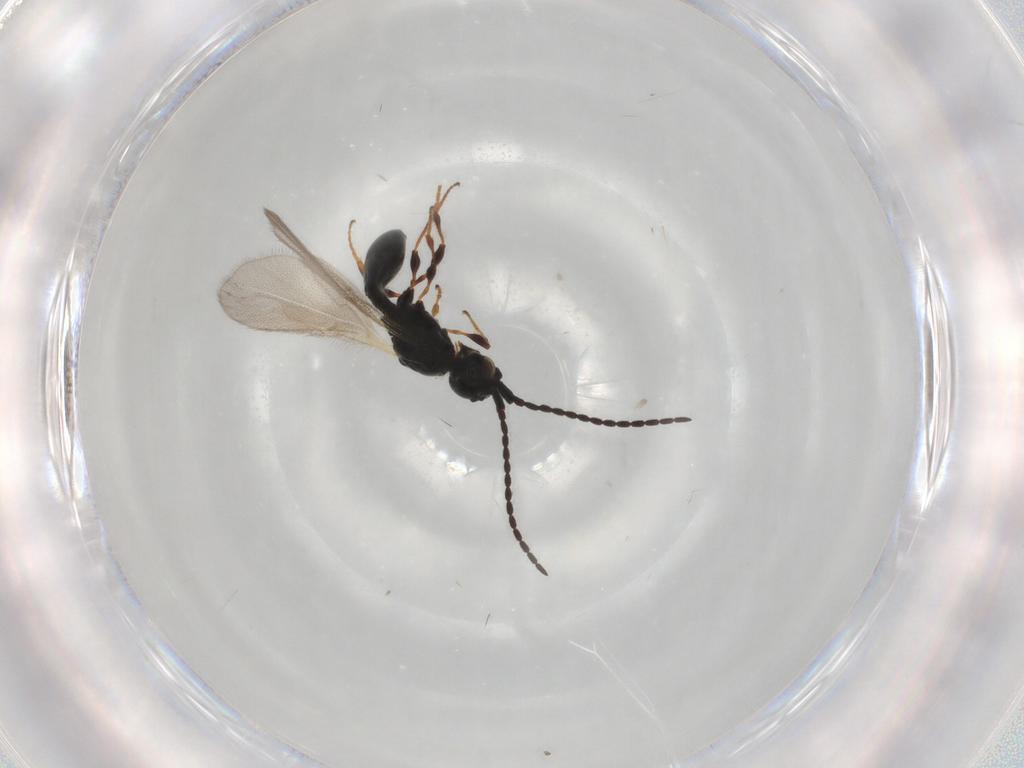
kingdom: Animalia
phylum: Arthropoda
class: Insecta
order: Hymenoptera
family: Diapriidae
